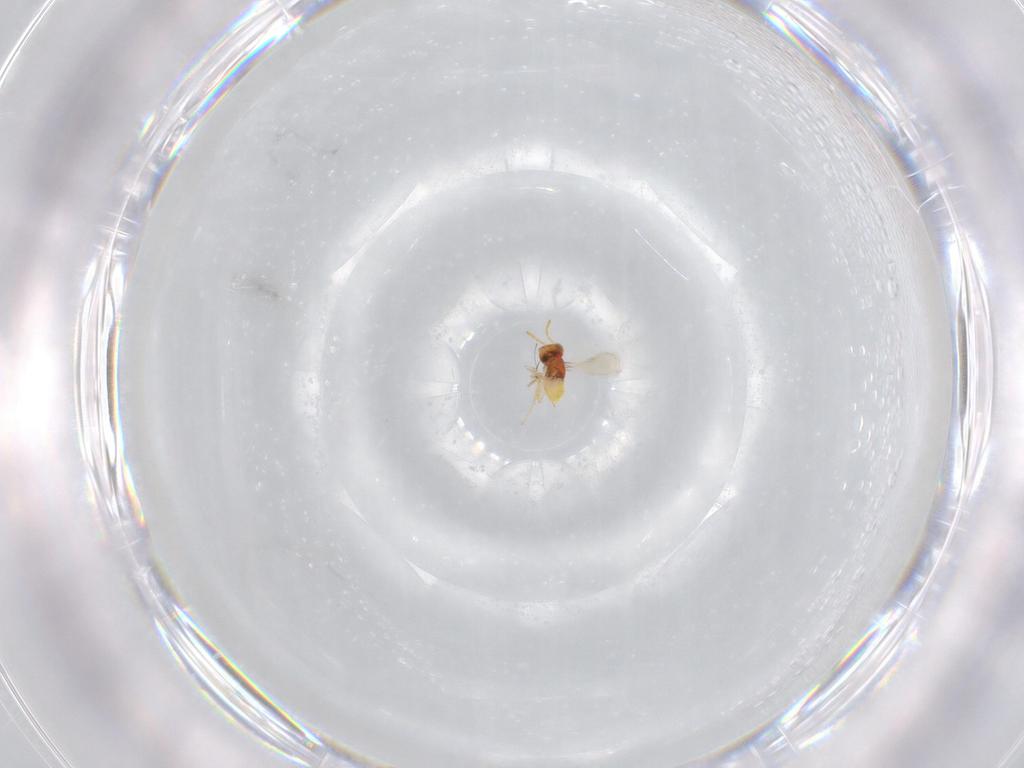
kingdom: Animalia
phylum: Arthropoda
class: Insecta
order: Hymenoptera
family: Aphelinidae
